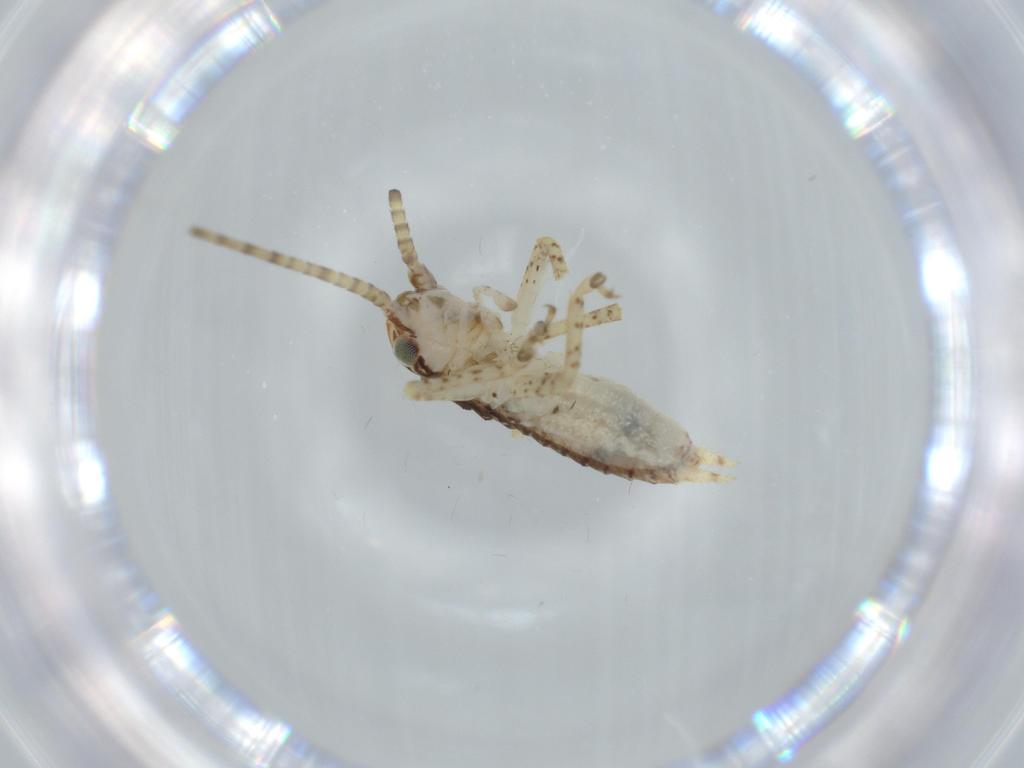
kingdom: Animalia
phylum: Arthropoda
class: Insecta
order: Orthoptera
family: Gryllidae
